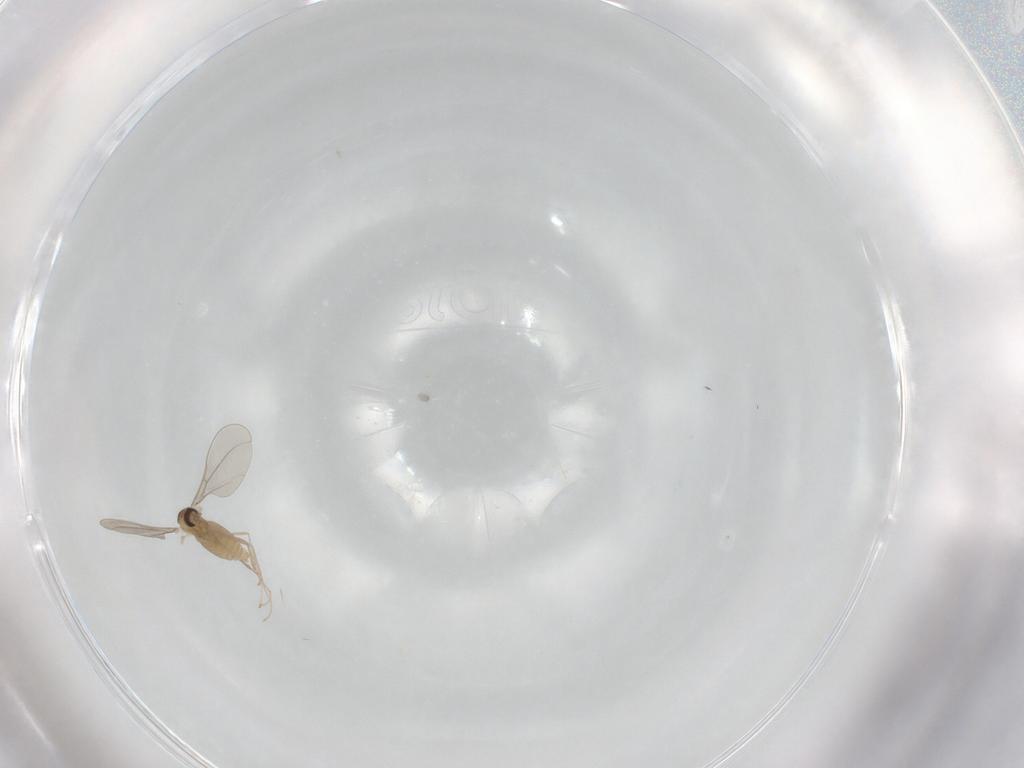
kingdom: Animalia
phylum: Arthropoda
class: Insecta
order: Diptera
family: Cecidomyiidae
